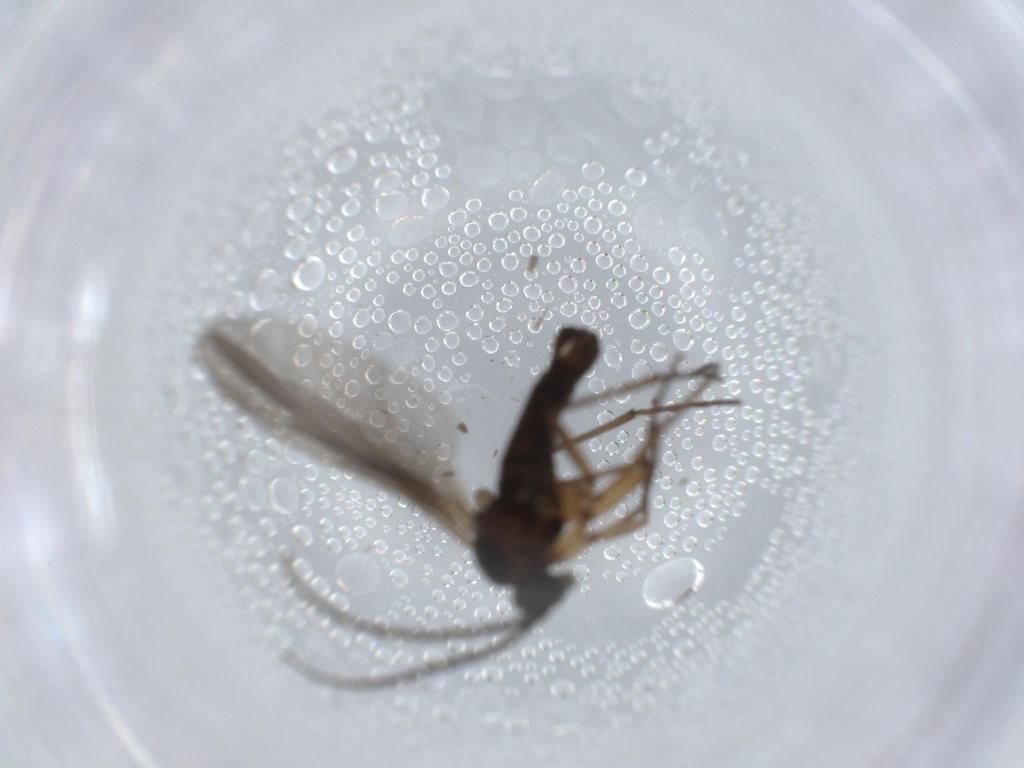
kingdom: Animalia
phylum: Arthropoda
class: Insecta
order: Diptera
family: Sciaridae
